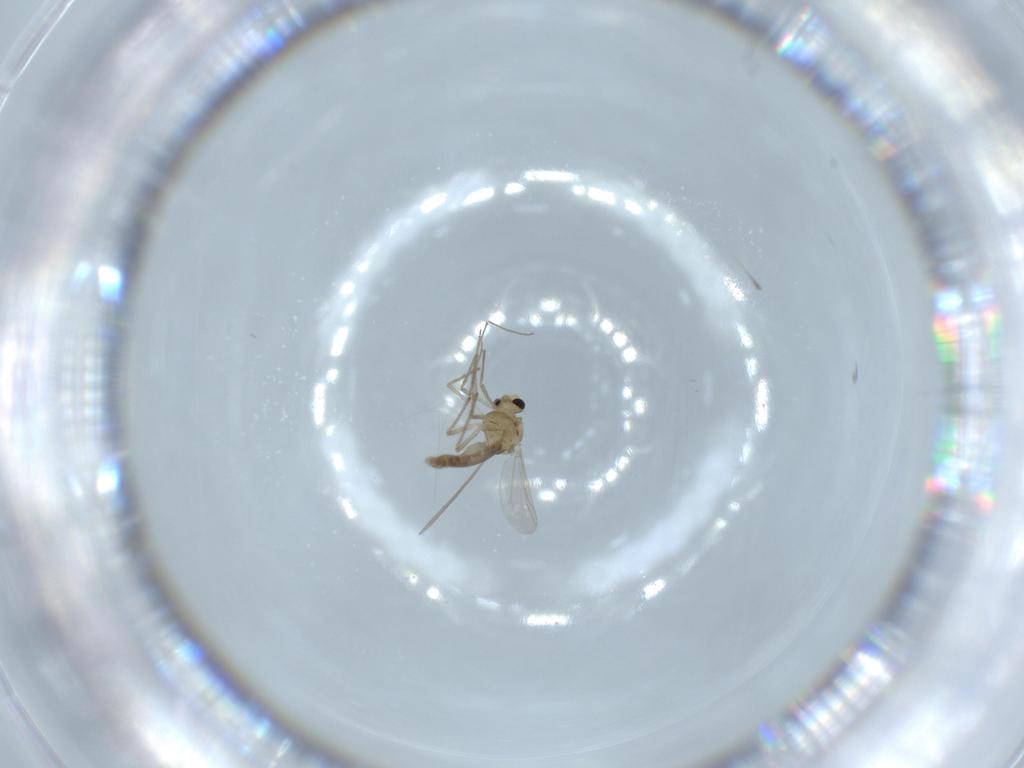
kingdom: Animalia
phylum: Arthropoda
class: Insecta
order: Diptera
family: Chironomidae
